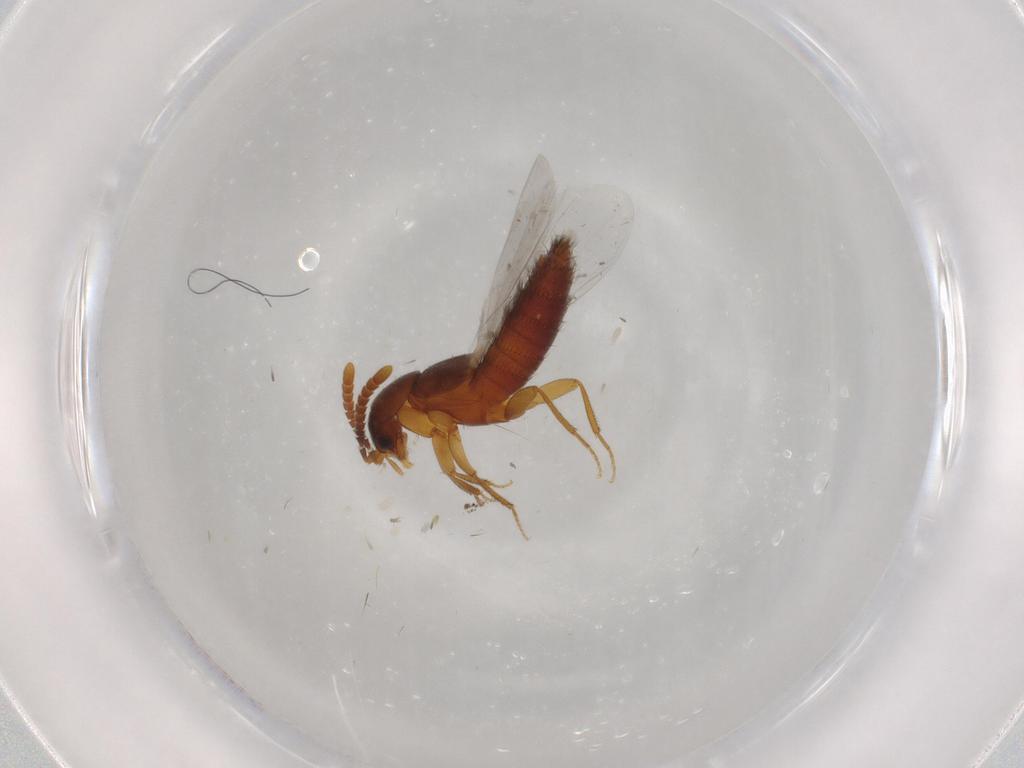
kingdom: Animalia
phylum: Arthropoda
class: Insecta
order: Coleoptera
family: Staphylinidae
